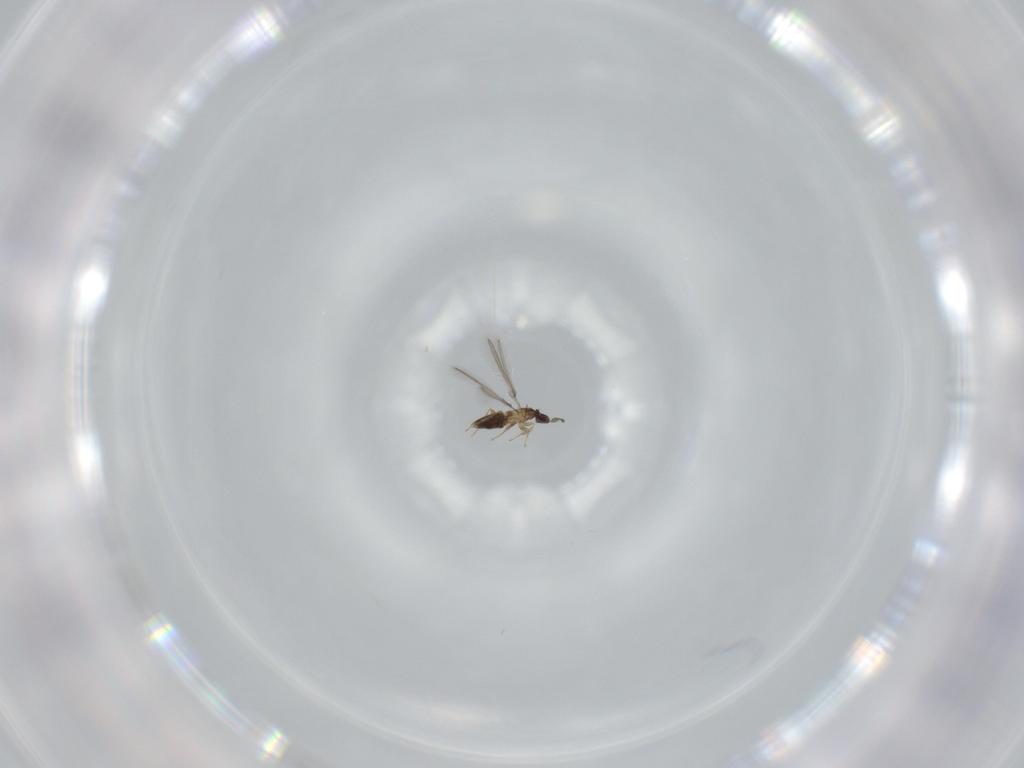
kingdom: Animalia
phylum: Arthropoda
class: Insecta
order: Hymenoptera
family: Mymaridae
